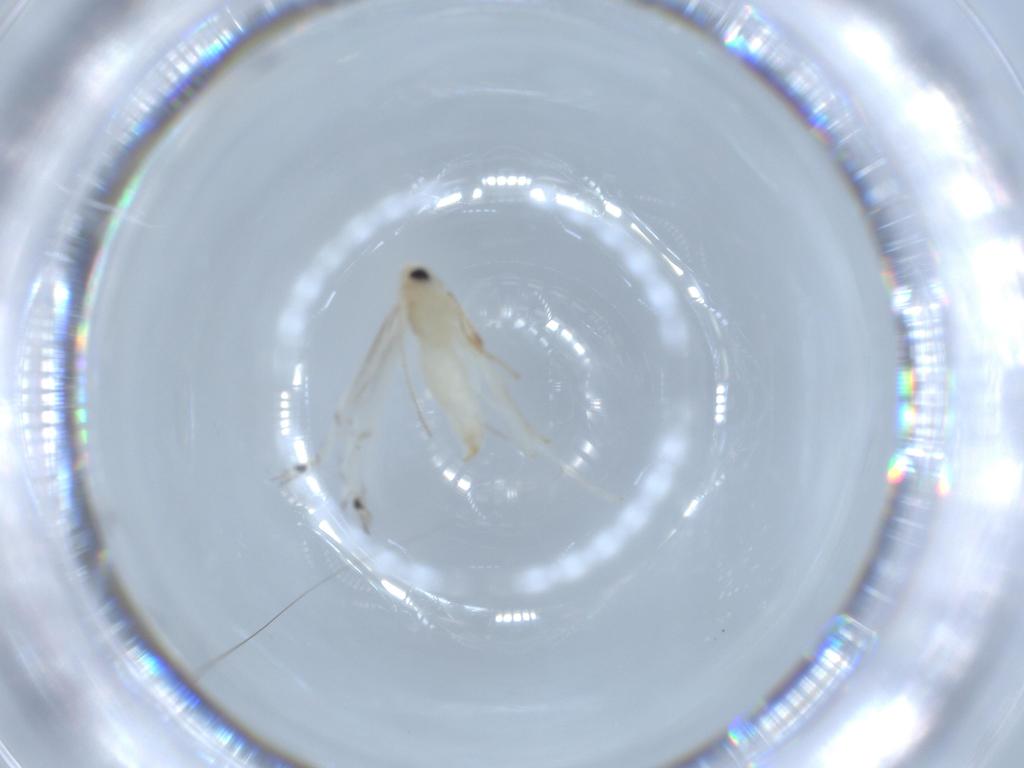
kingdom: Animalia
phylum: Arthropoda
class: Insecta
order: Lepidoptera
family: Gracillariidae
